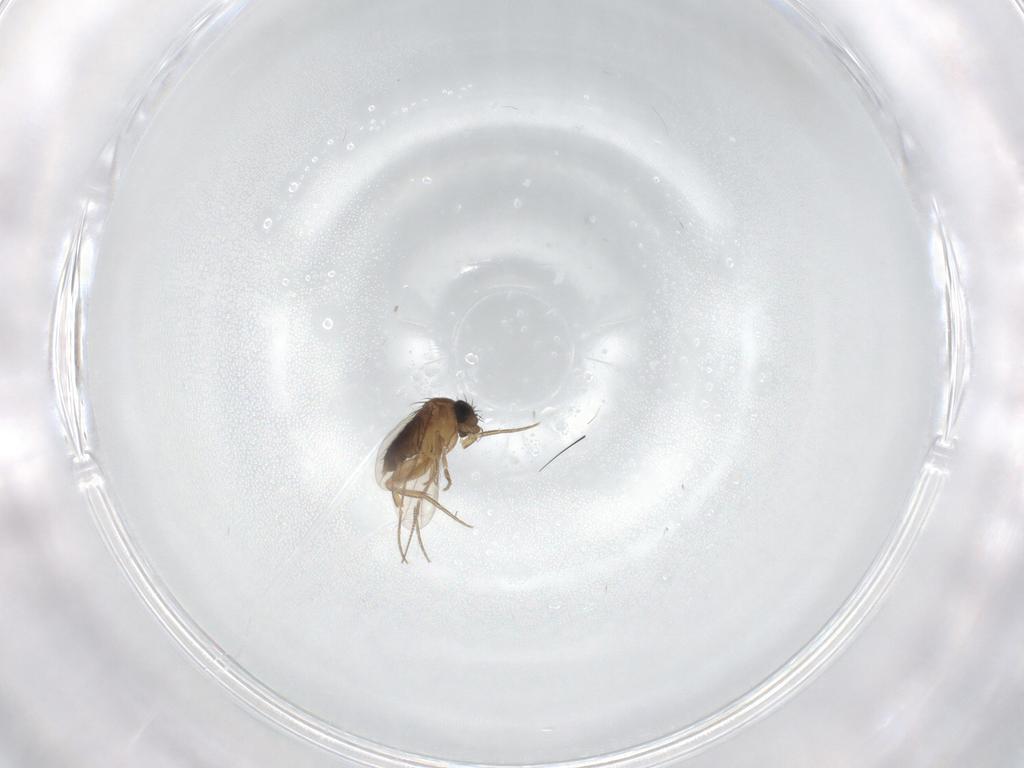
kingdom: Animalia
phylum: Arthropoda
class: Insecta
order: Diptera
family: Phoridae
